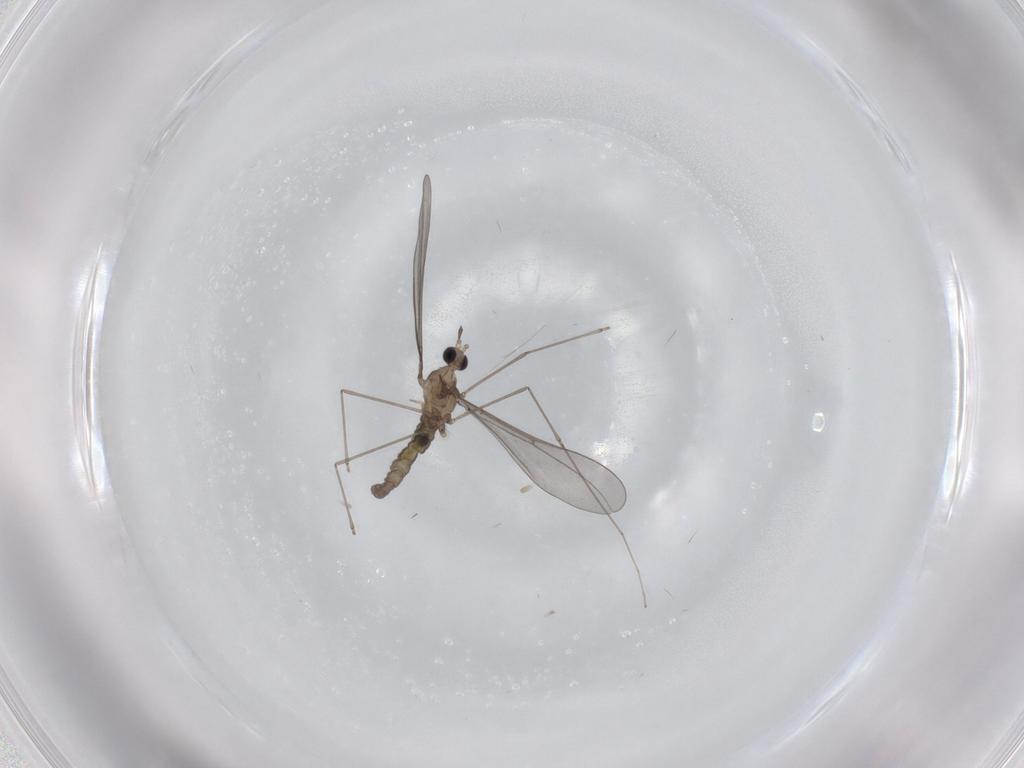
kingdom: Animalia
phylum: Arthropoda
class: Insecta
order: Diptera
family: Cecidomyiidae
